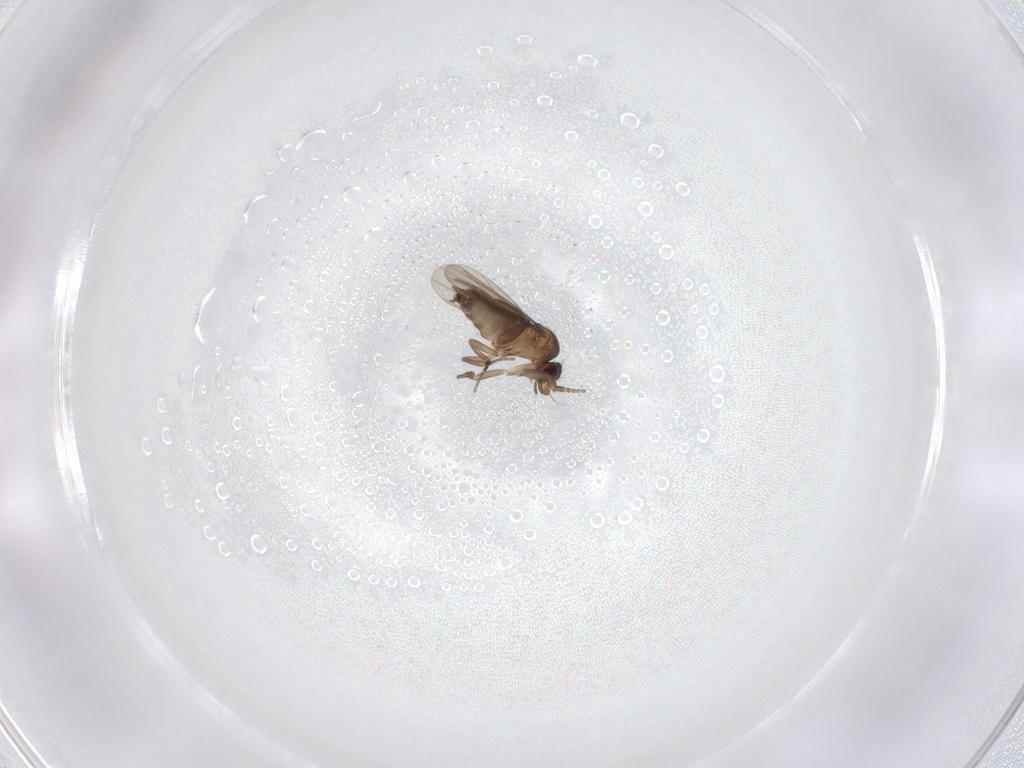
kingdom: Animalia
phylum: Arthropoda
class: Insecta
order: Diptera
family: Phoridae
